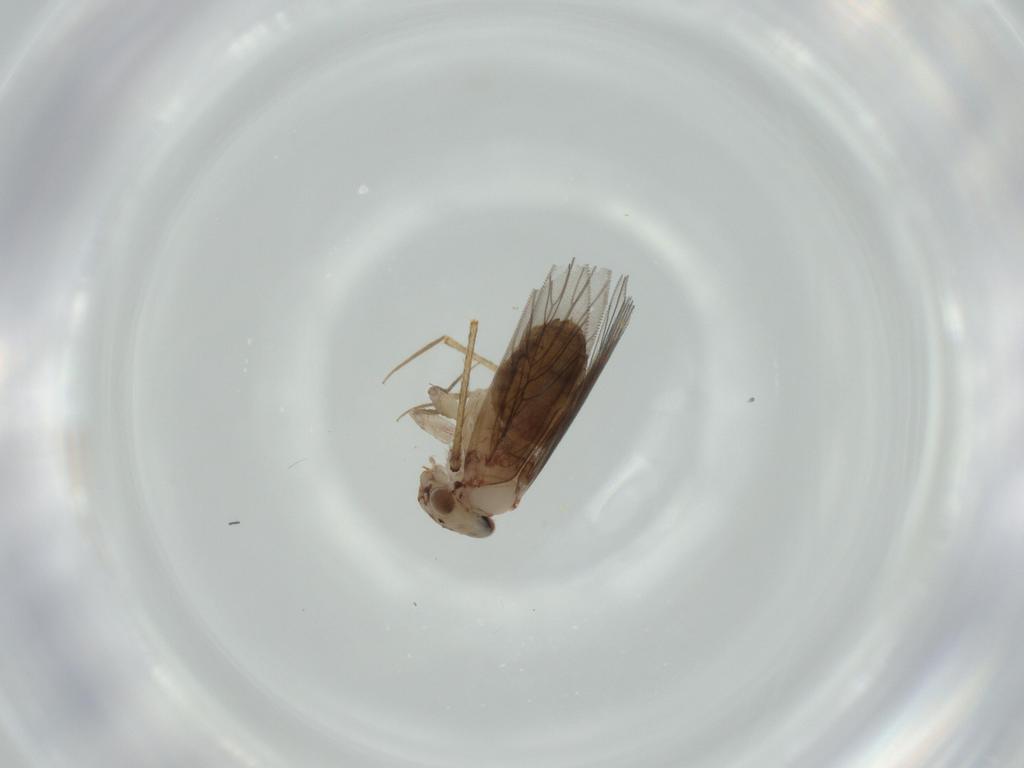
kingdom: Animalia
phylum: Arthropoda
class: Insecta
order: Psocodea
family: Lepidopsocidae
